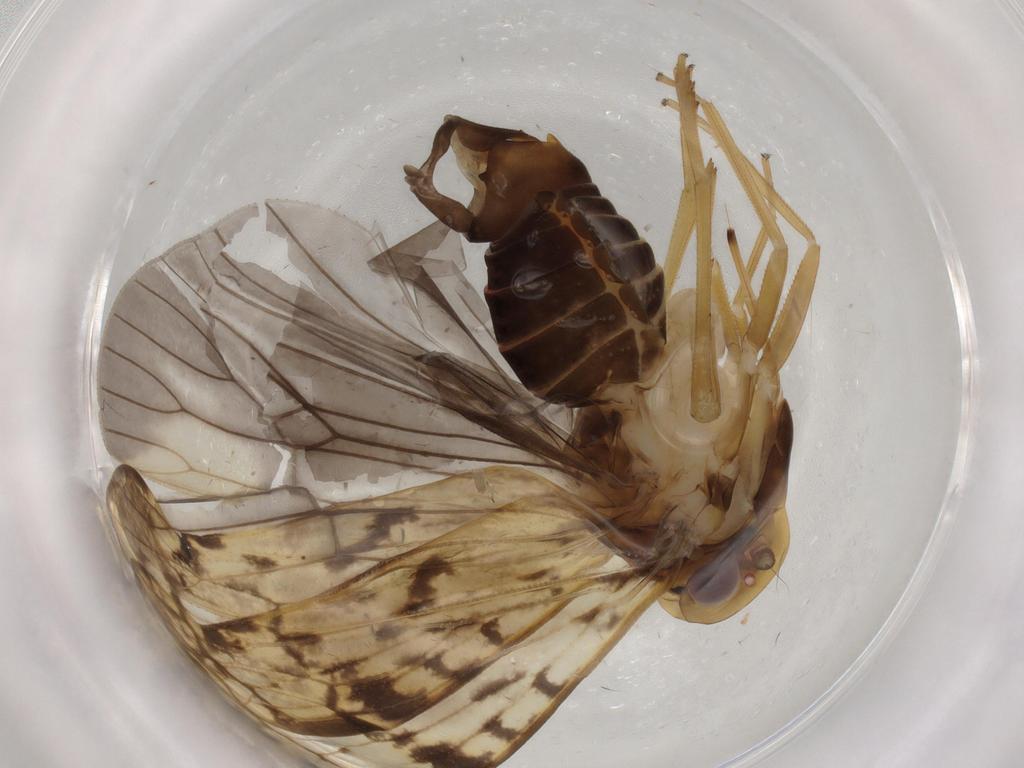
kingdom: Animalia
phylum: Arthropoda
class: Insecta
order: Hemiptera
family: Cixiidae
